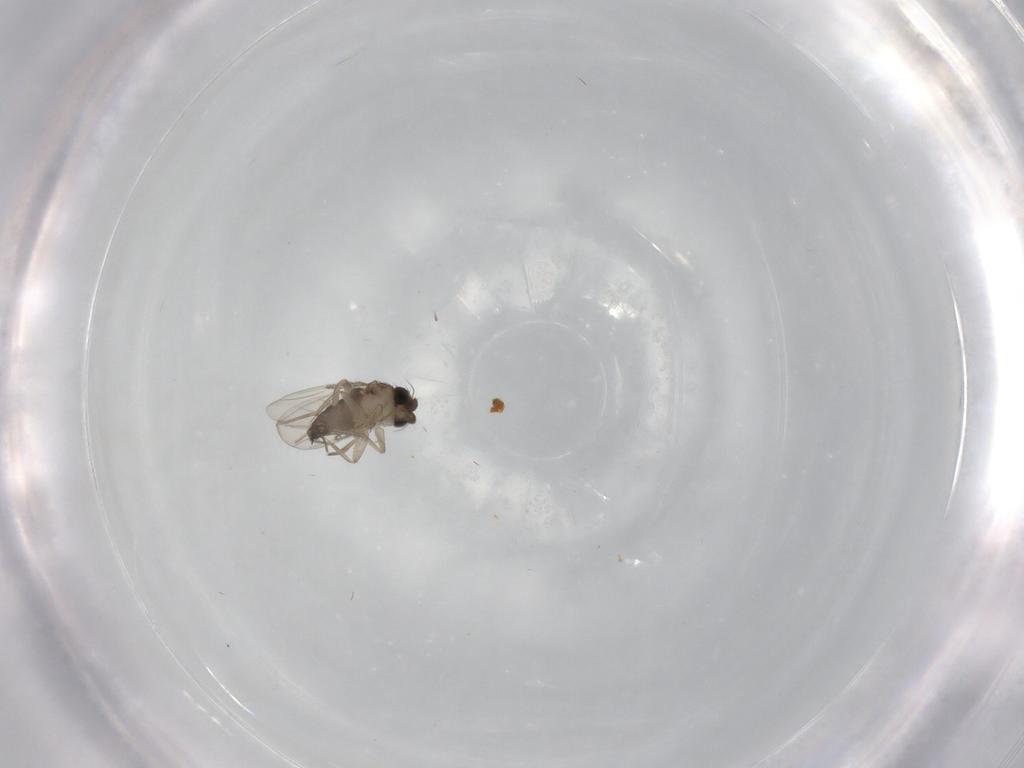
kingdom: Animalia
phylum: Arthropoda
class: Insecta
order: Diptera
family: Phoridae
